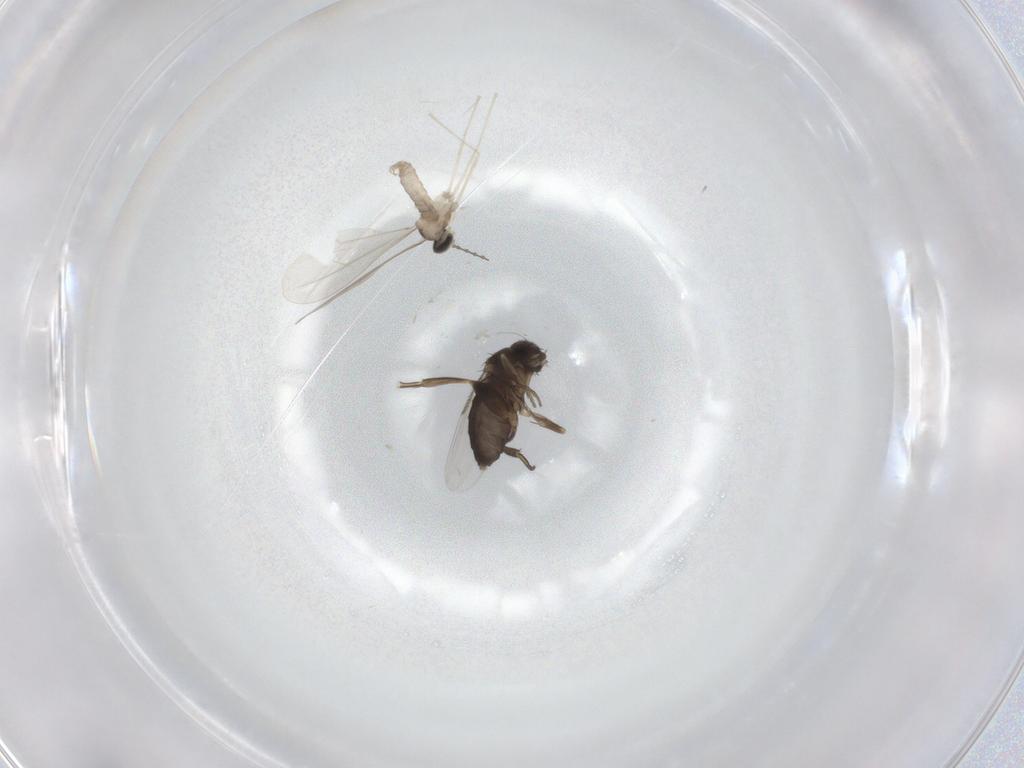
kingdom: Animalia
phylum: Arthropoda
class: Insecta
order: Diptera
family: Cecidomyiidae
